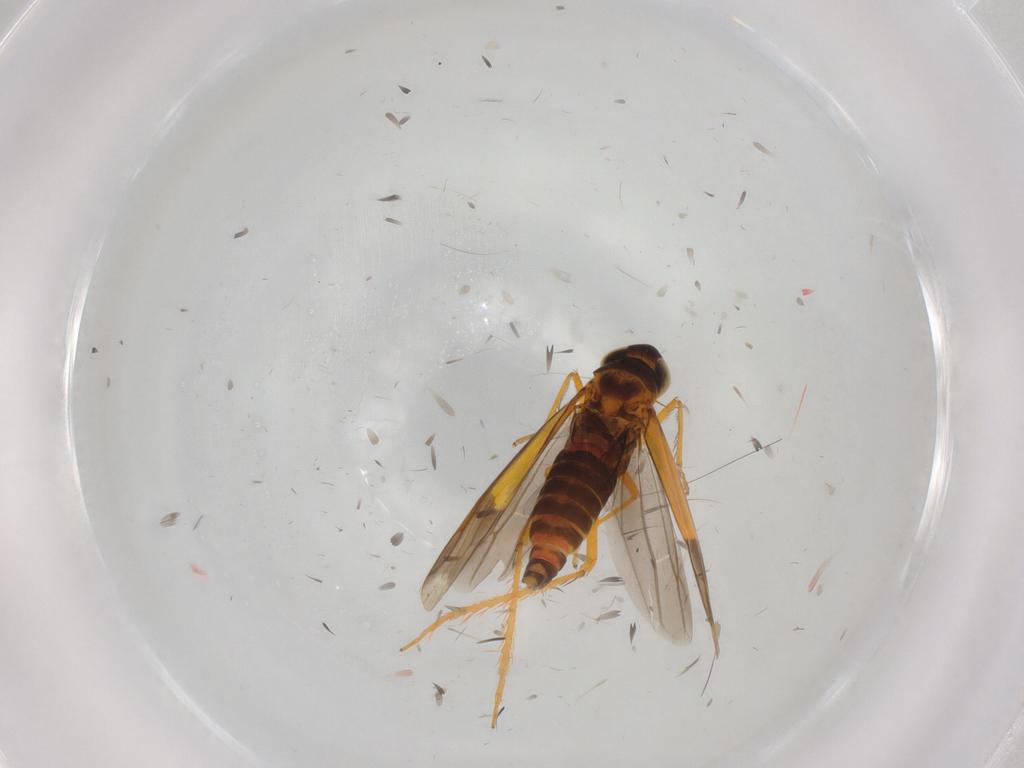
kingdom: Animalia
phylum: Arthropoda
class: Insecta
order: Hemiptera
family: Cicadellidae
